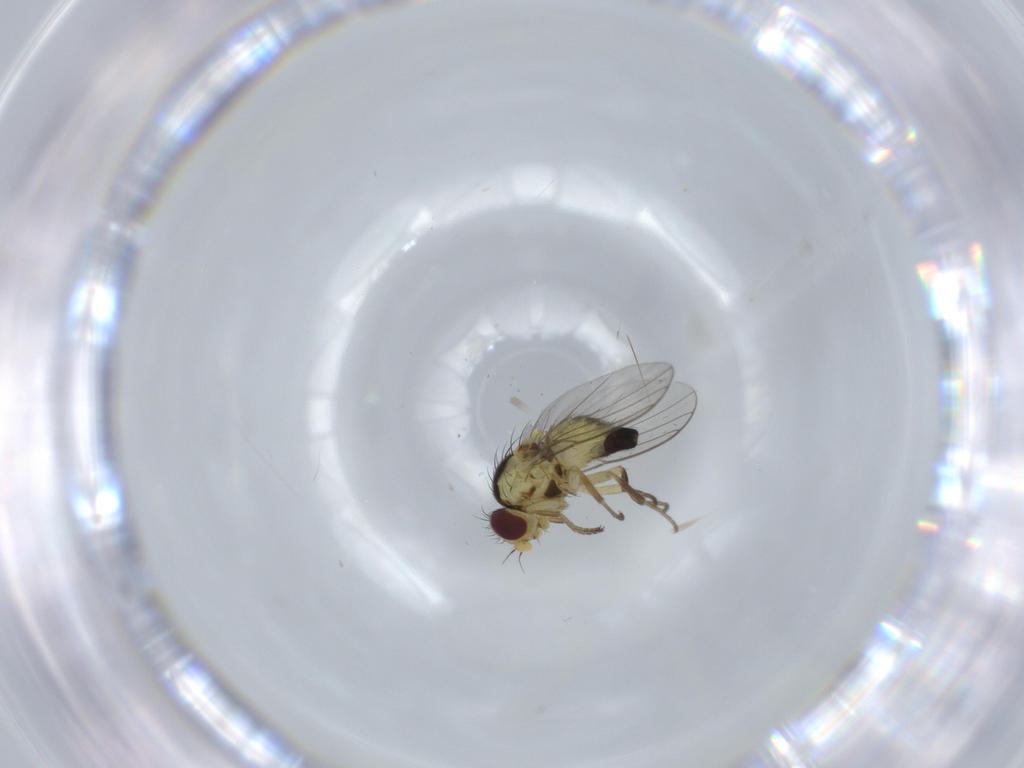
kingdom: Animalia
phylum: Arthropoda
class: Insecta
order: Diptera
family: Agromyzidae
